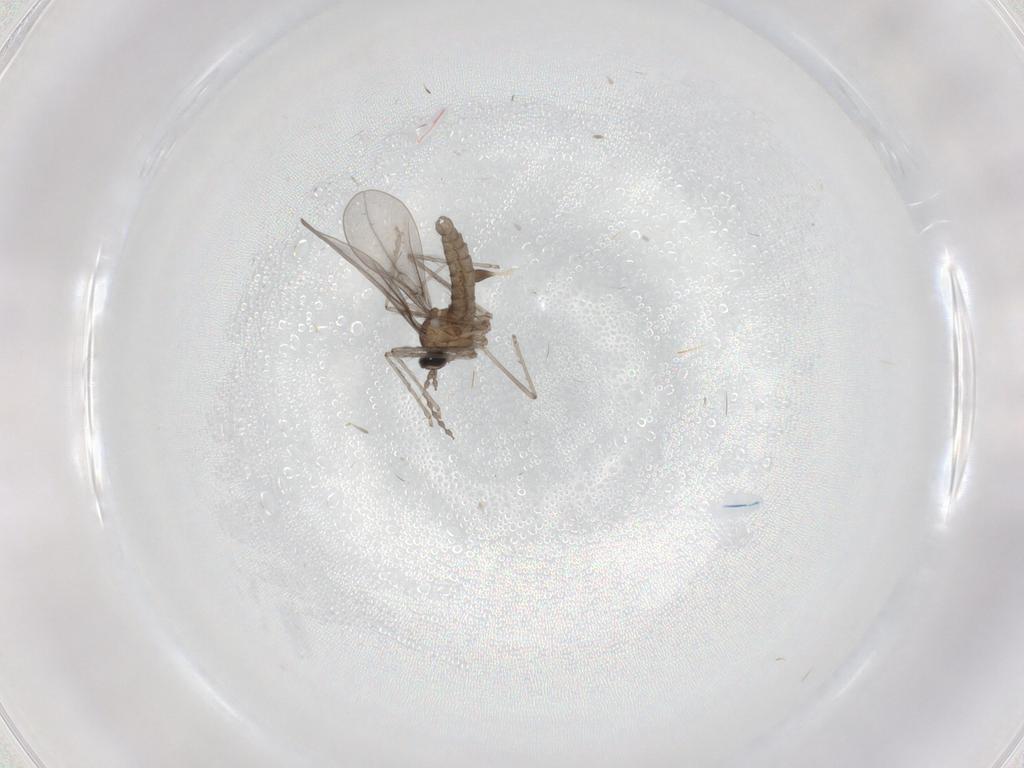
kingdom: Animalia
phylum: Arthropoda
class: Insecta
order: Diptera
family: Cecidomyiidae
